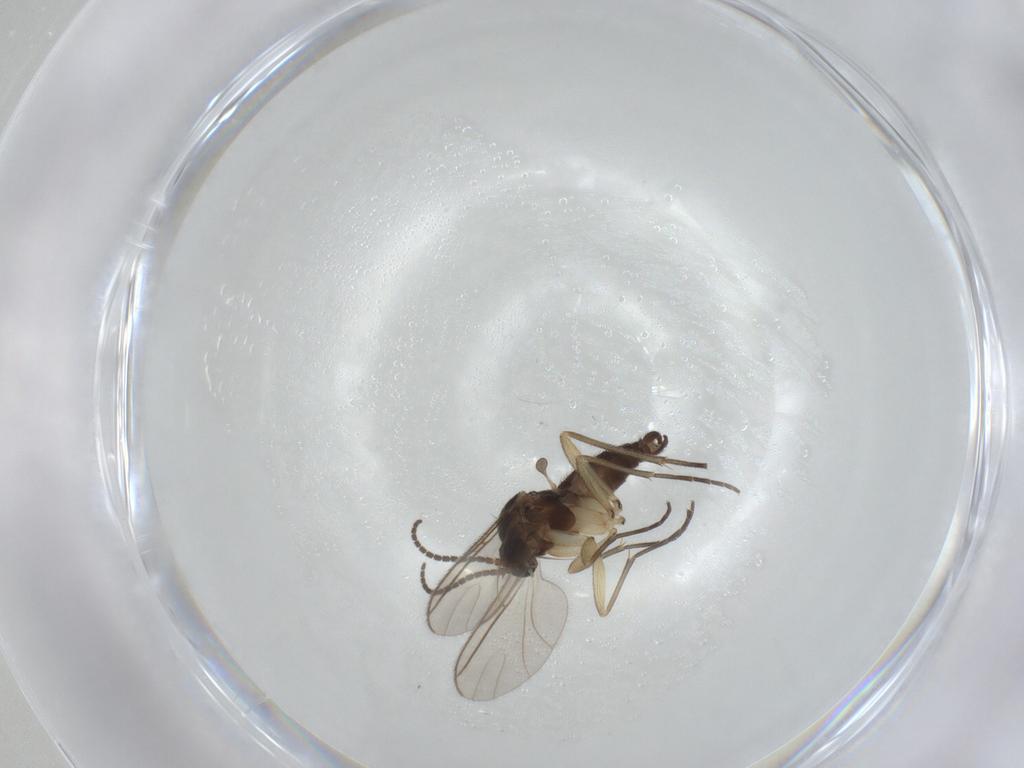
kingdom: Animalia
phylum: Arthropoda
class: Insecta
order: Diptera
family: Sciaridae
